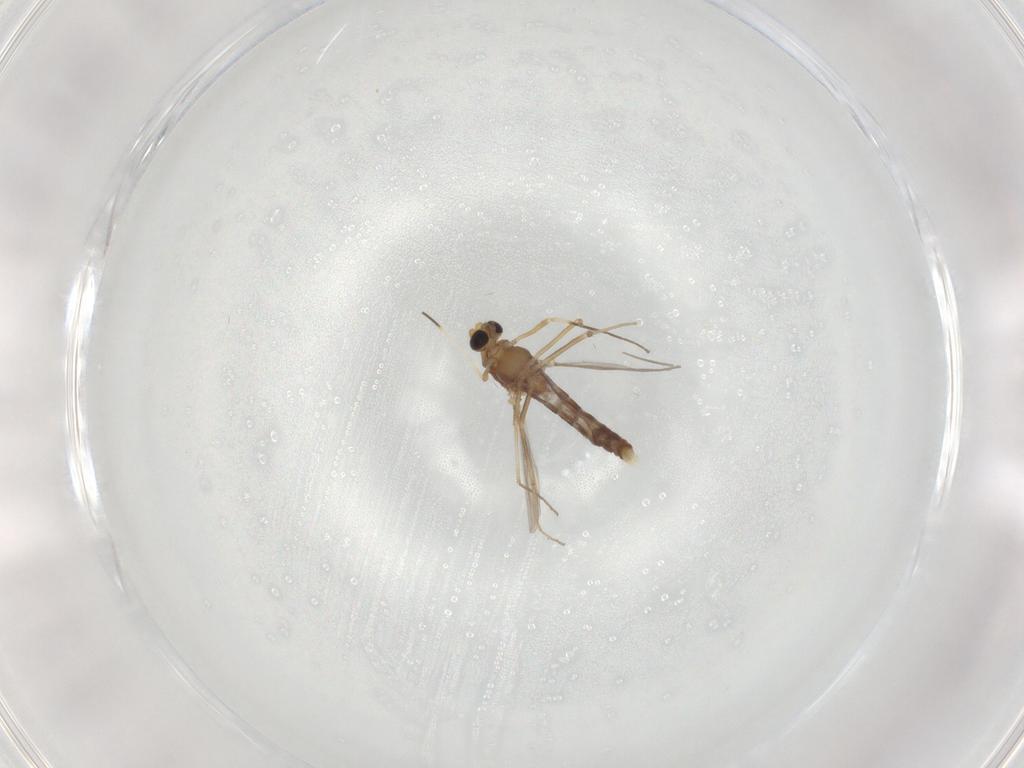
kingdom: Animalia
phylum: Arthropoda
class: Insecta
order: Diptera
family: Chironomidae
